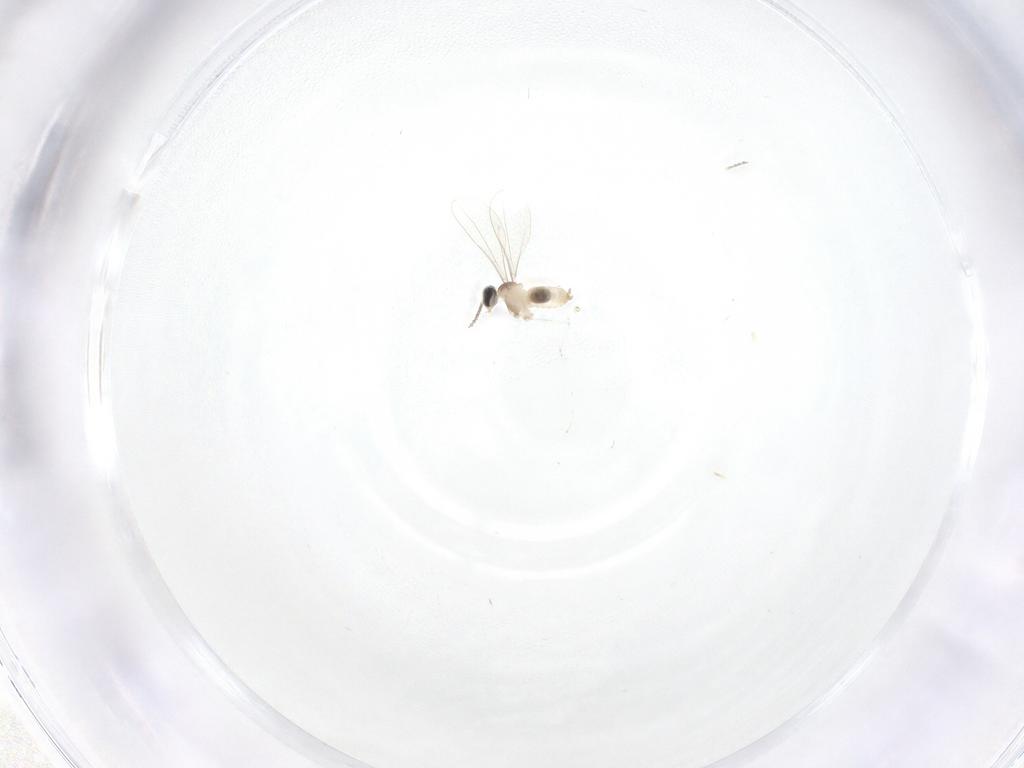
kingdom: Animalia
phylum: Arthropoda
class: Insecta
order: Diptera
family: Cecidomyiidae
